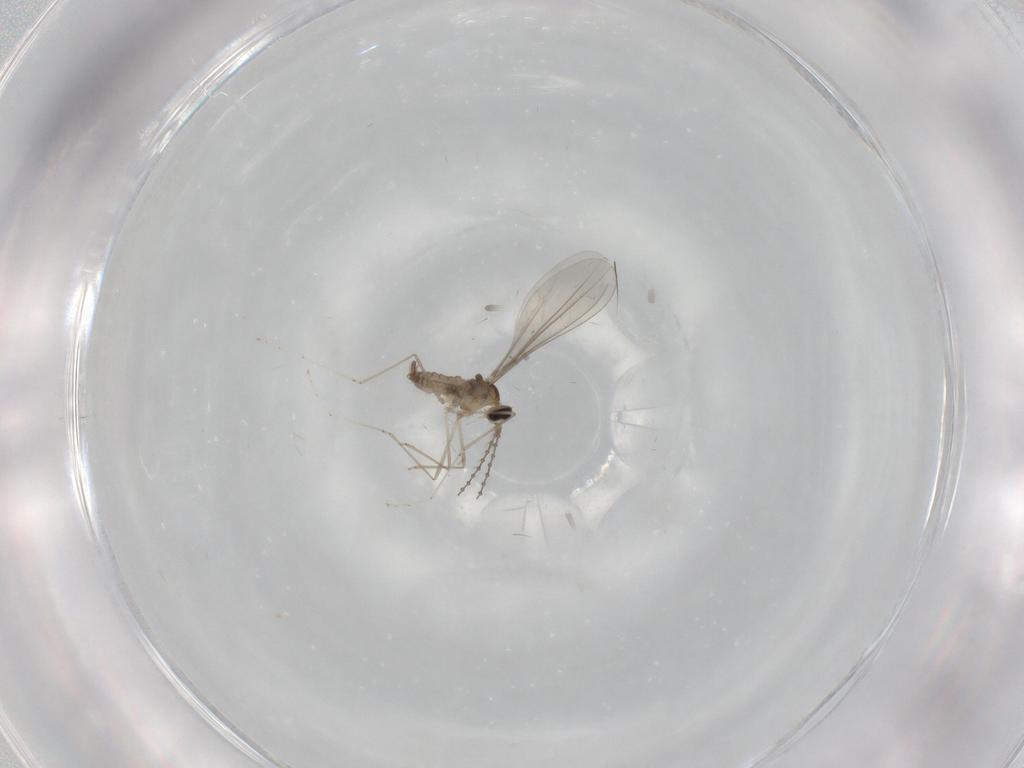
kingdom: Animalia
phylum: Arthropoda
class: Insecta
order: Diptera
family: Cecidomyiidae
